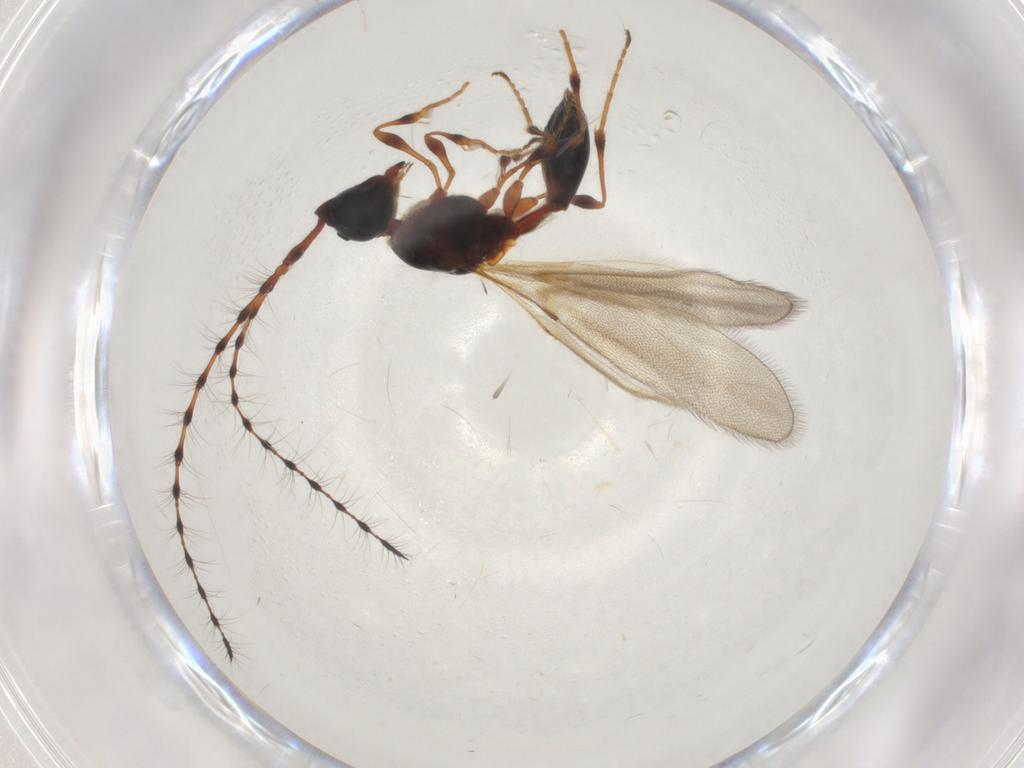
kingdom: Animalia
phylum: Arthropoda
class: Insecta
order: Hymenoptera
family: Diapriidae
